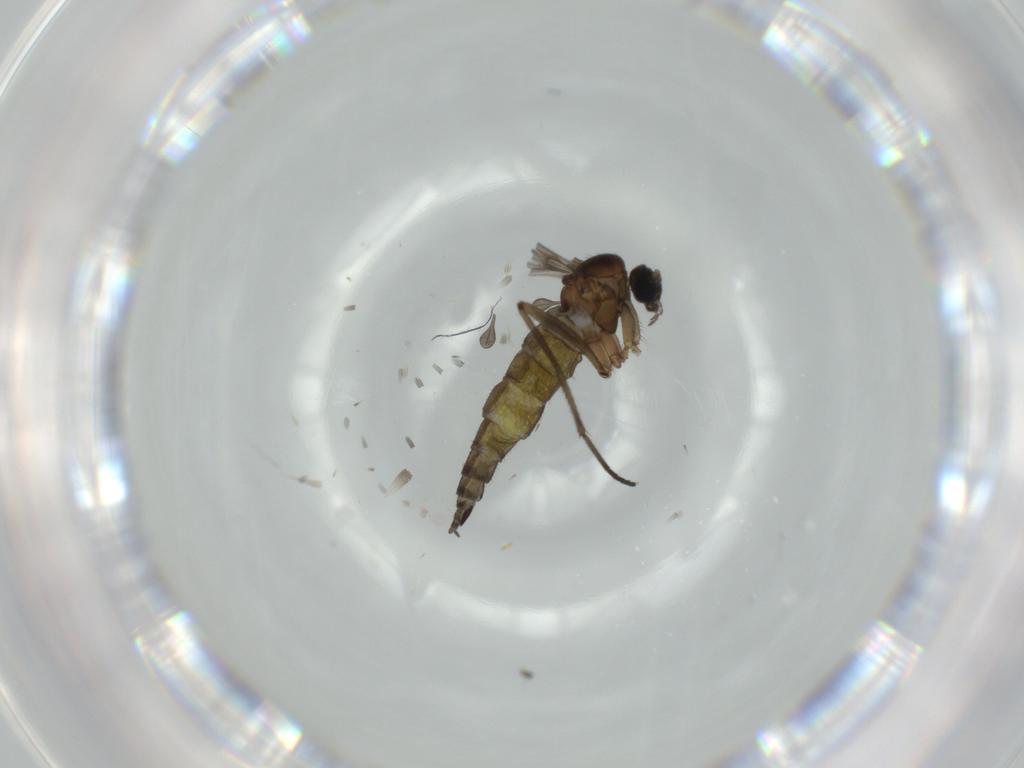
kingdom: Animalia
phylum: Arthropoda
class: Insecta
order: Diptera
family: Sciaridae
